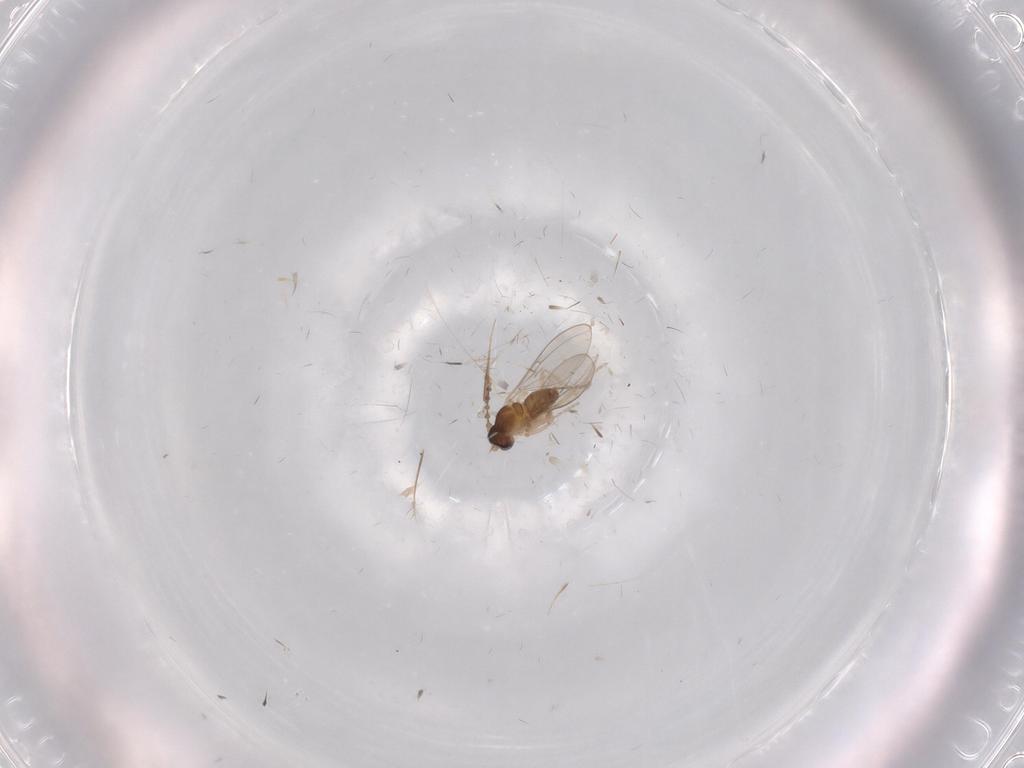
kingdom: Animalia
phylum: Arthropoda
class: Insecta
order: Diptera
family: Cecidomyiidae
